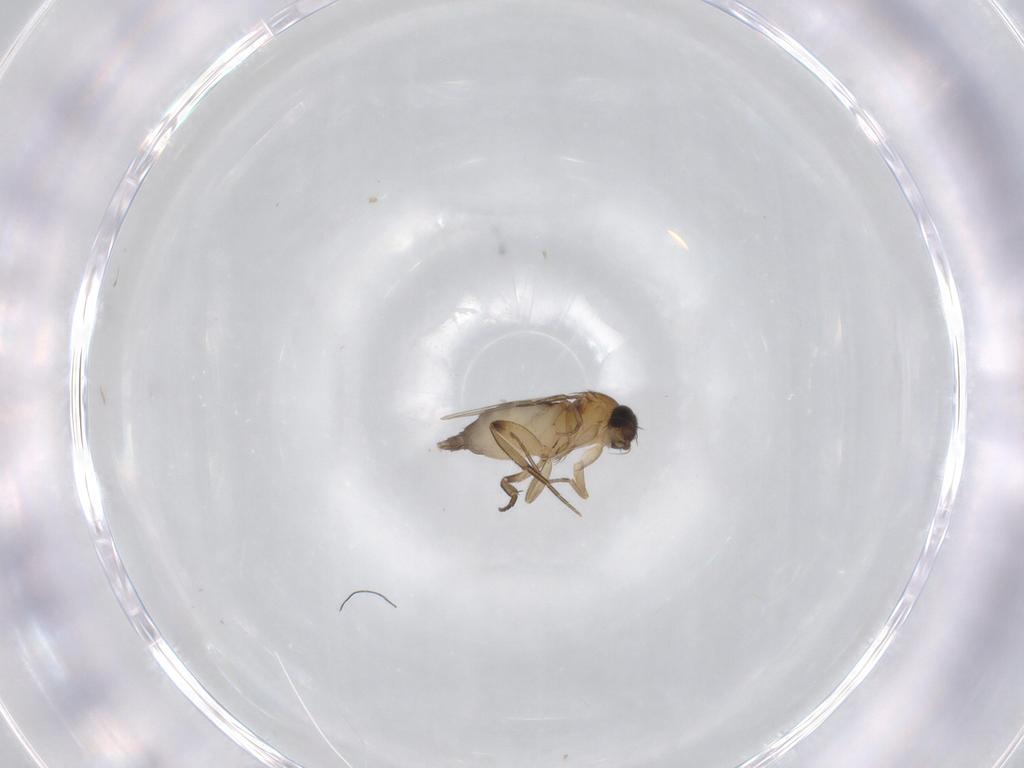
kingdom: Animalia
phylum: Arthropoda
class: Insecta
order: Diptera
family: Phoridae
